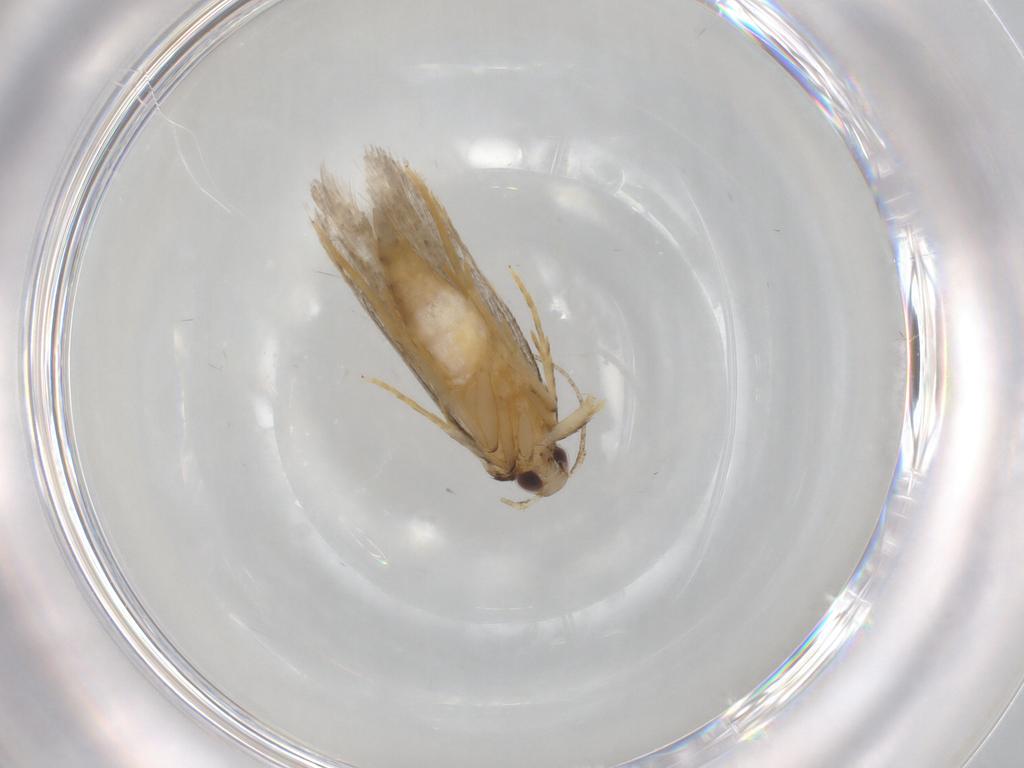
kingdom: Animalia
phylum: Arthropoda
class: Insecta
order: Lepidoptera
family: Autostichidae
